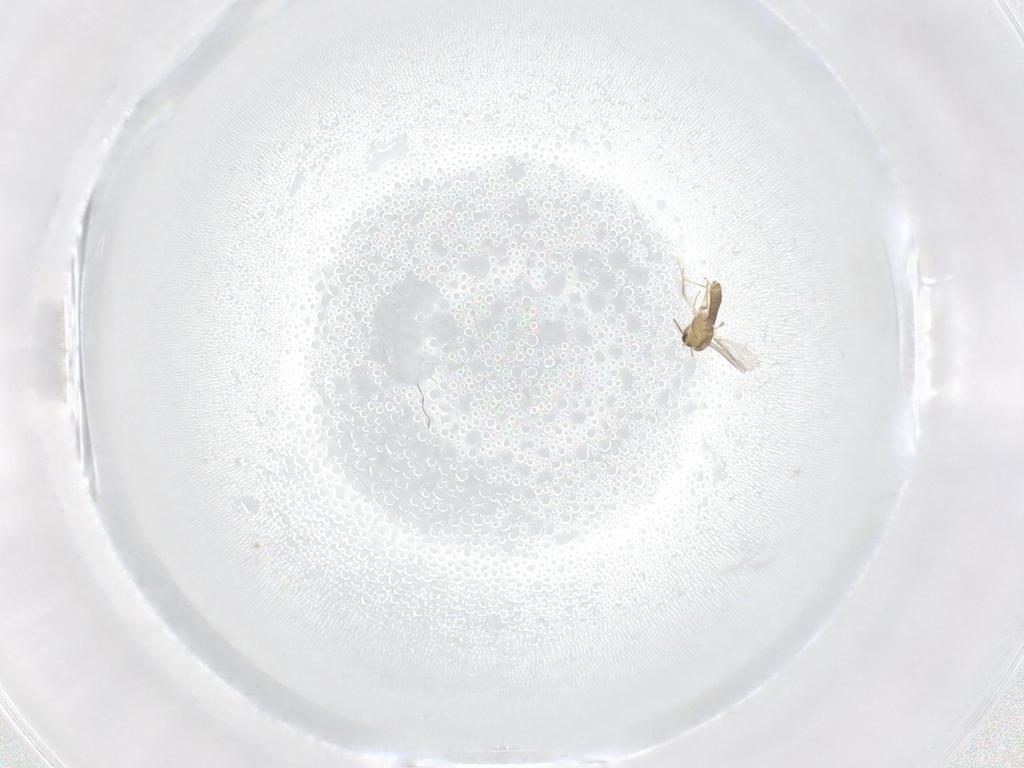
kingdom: Animalia
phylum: Arthropoda
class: Insecta
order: Diptera
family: Chironomidae
